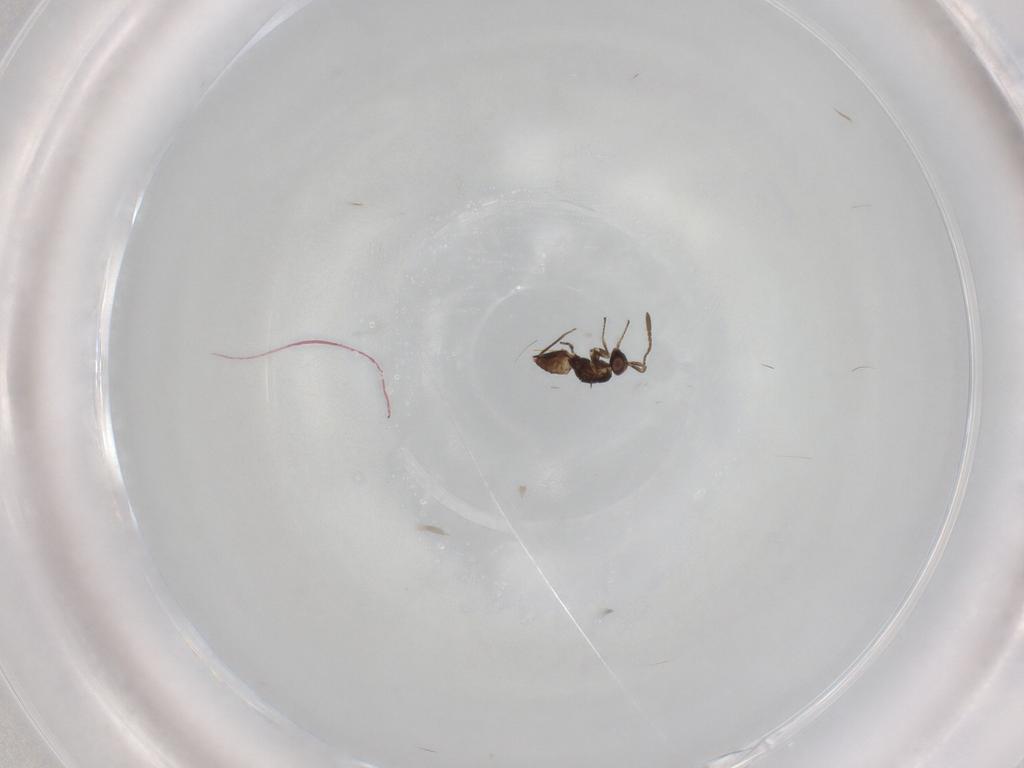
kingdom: Animalia
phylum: Arthropoda
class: Insecta
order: Hymenoptera
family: Mymaridae
